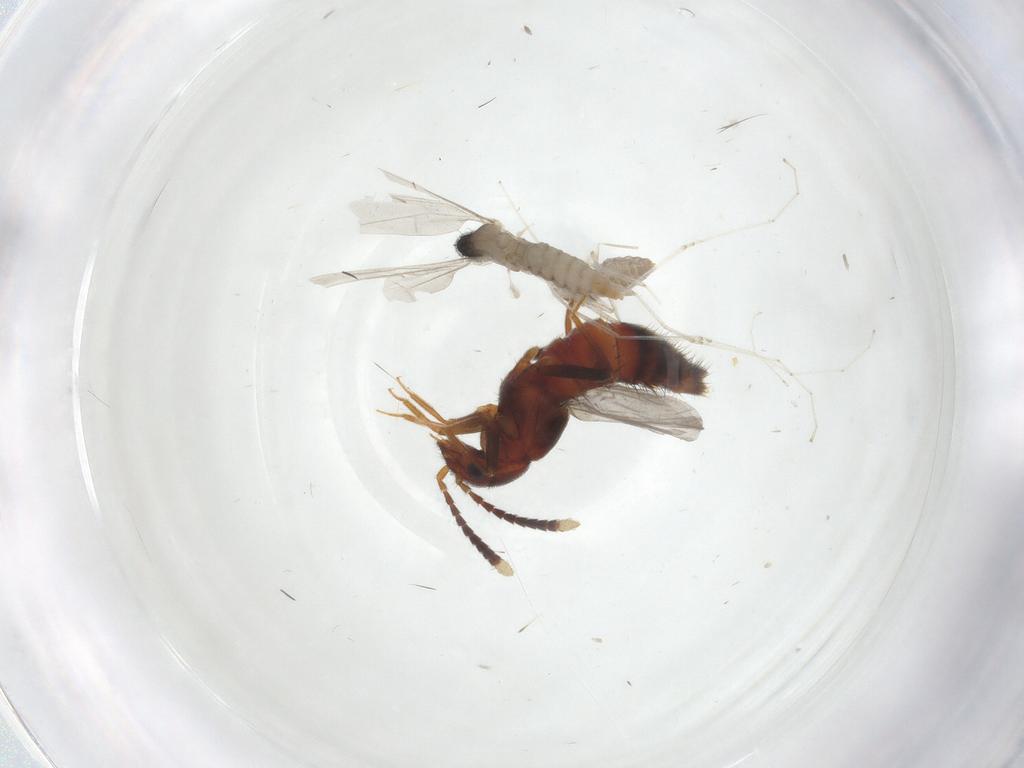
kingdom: Animalia
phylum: Arthropoda
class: Insecta
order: Coleoptera
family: Staphylinidae
